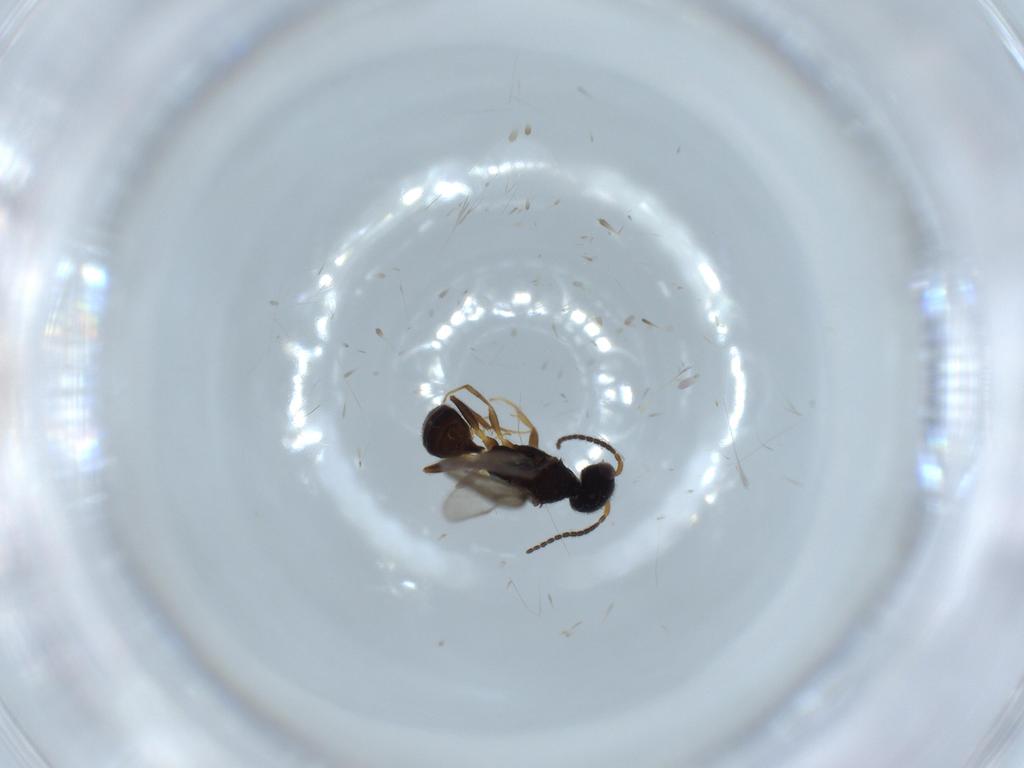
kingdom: Animalia
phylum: Arthropoda
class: Insecta
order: Hymenoptera
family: Bethylidae
